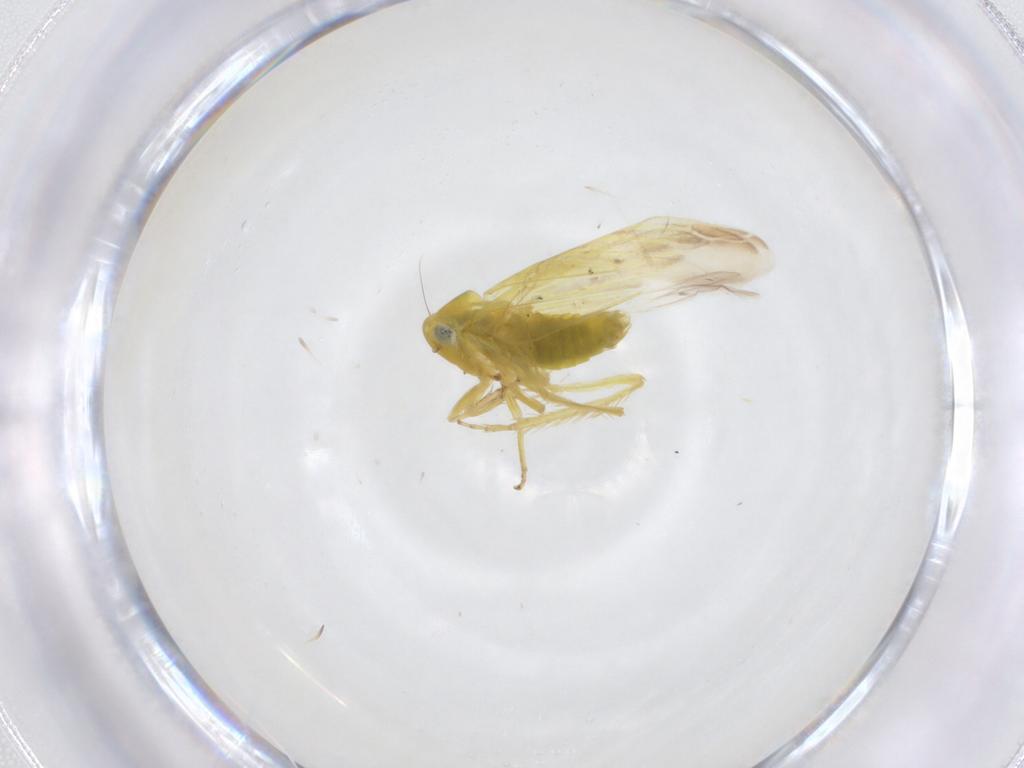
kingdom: Animalia
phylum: Arthropoda
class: Insecta
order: Hemiptera
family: Cicadellidae
